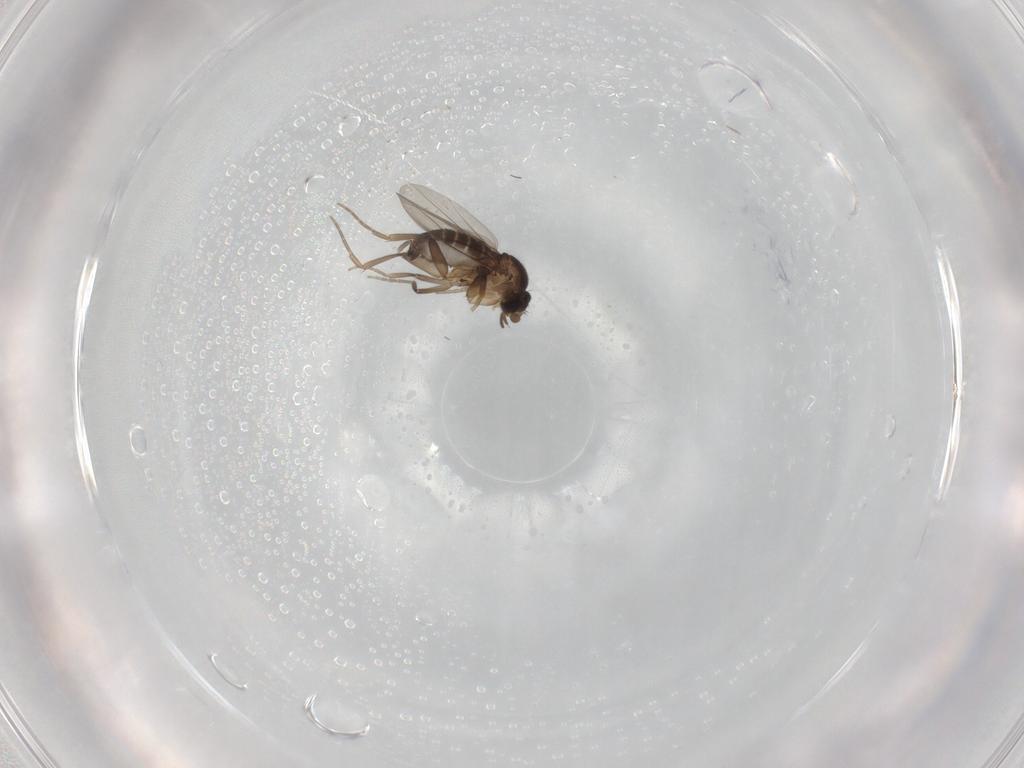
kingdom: Animalia
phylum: Arthropoda
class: Insecta
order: Diptera
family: Phoridae
